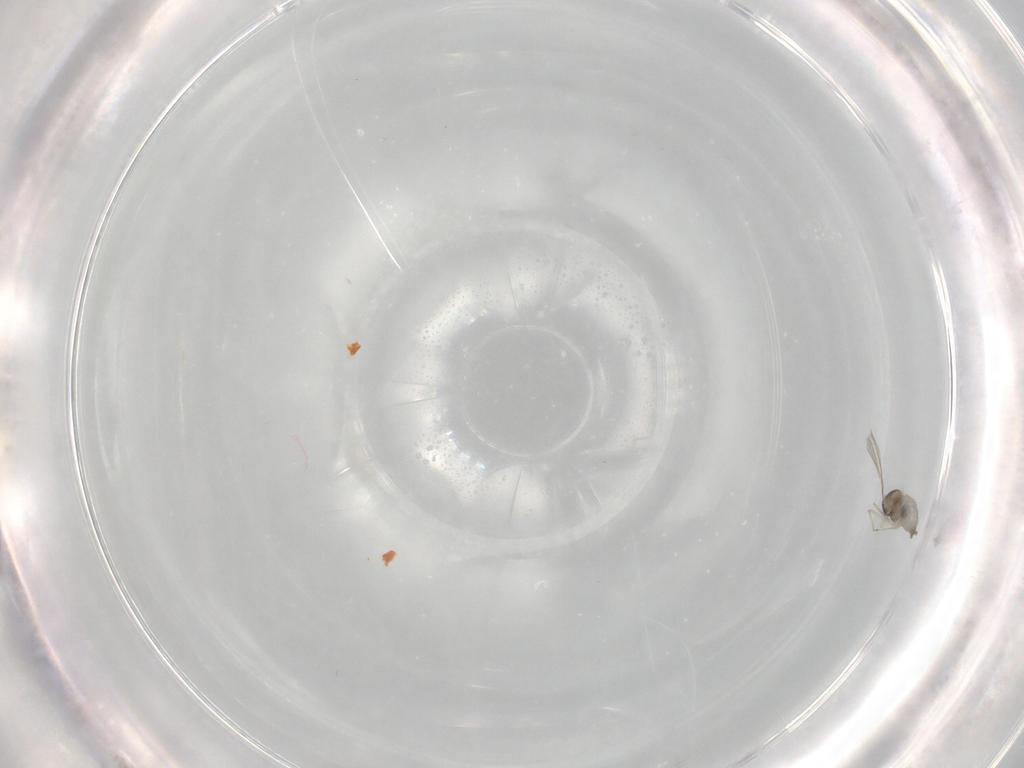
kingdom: Animalia
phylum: Arthropoda
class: Insecta
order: Diptera
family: Cecidomyiidae
